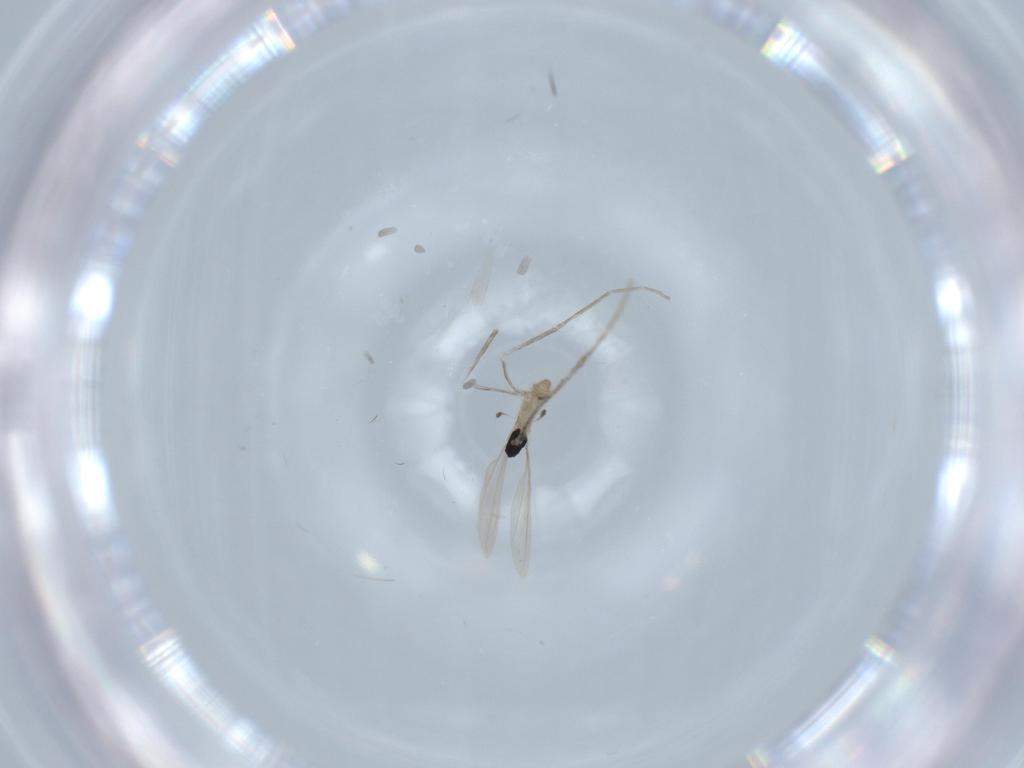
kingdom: Animalia
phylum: Arthropoda
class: Insecta
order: Diptera
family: Cecidomyiidae
